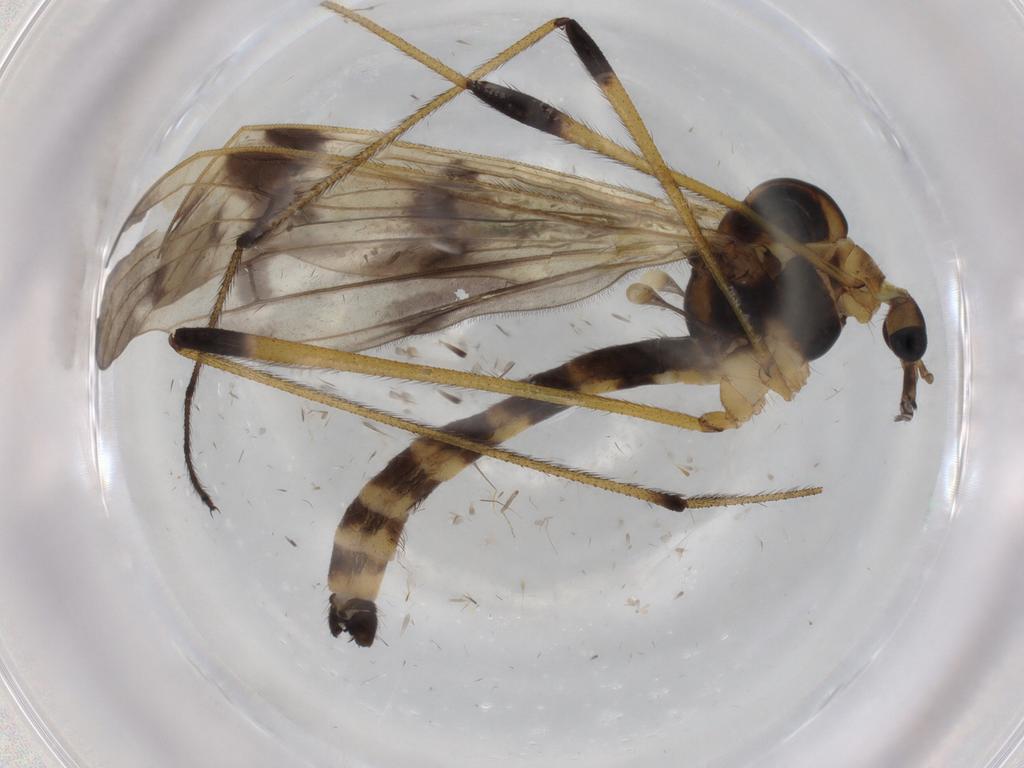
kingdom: Animalia
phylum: Arthropoda
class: Insecta
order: Diptera
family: Limoniidae
